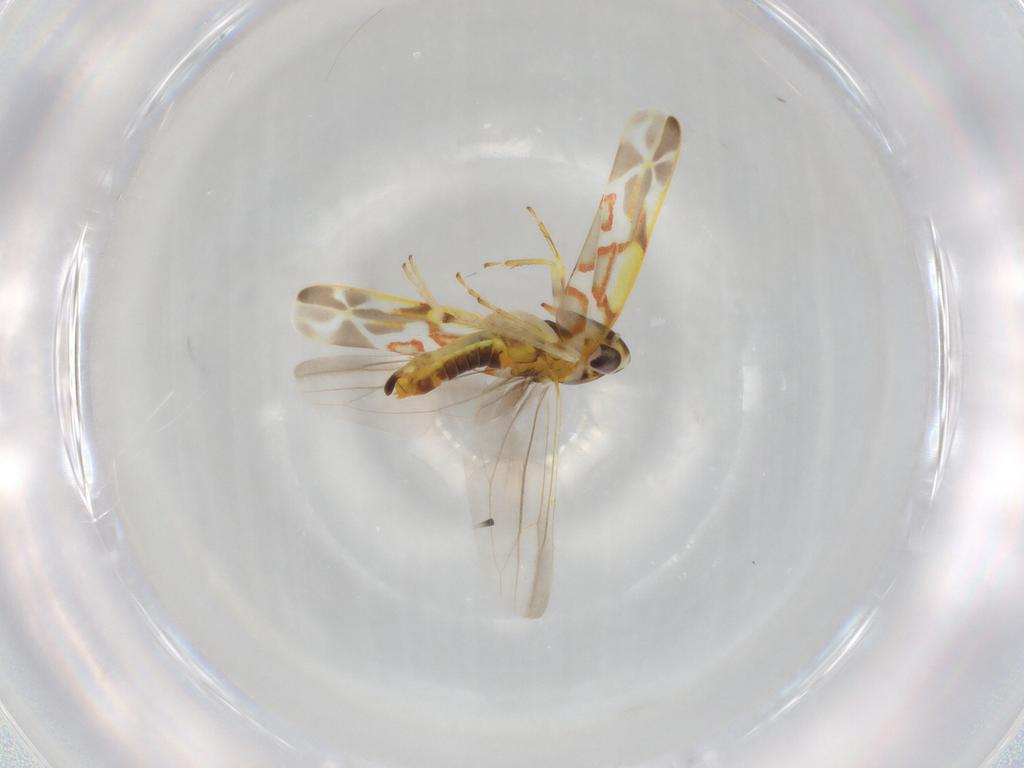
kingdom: Animalia
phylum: Arthropoda
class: Insecta
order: Hemiptera
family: Cicadellidae
